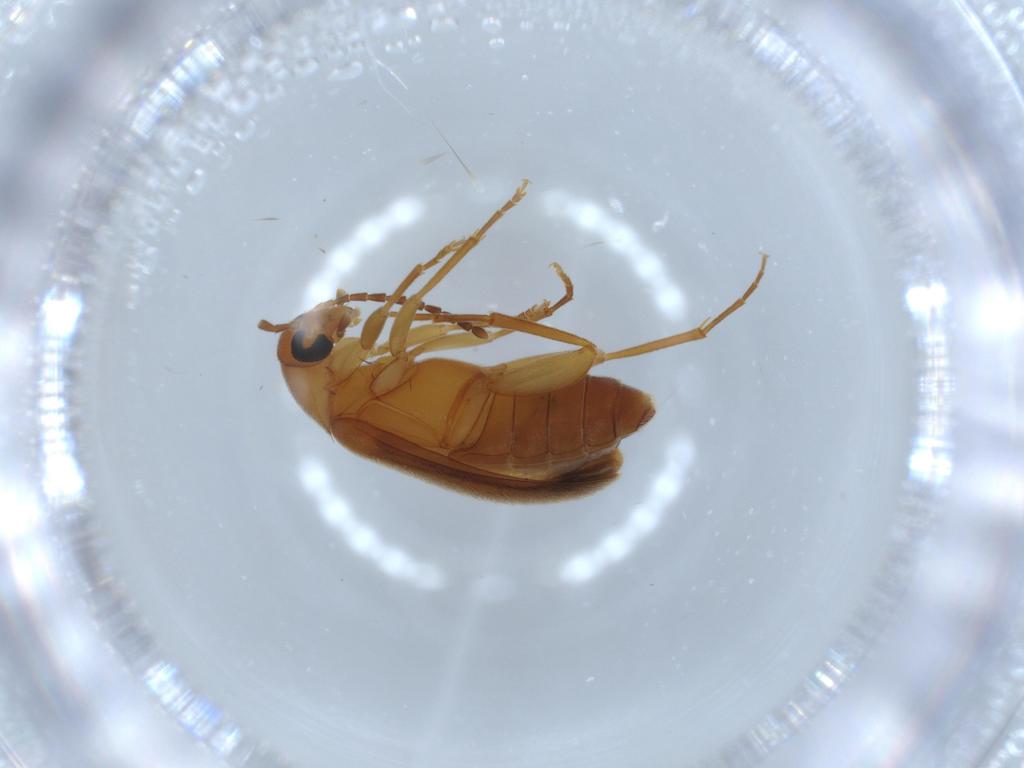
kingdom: Animalia
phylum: Arthropoda
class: Insecta
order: Coleoptera
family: Scraptiidae
